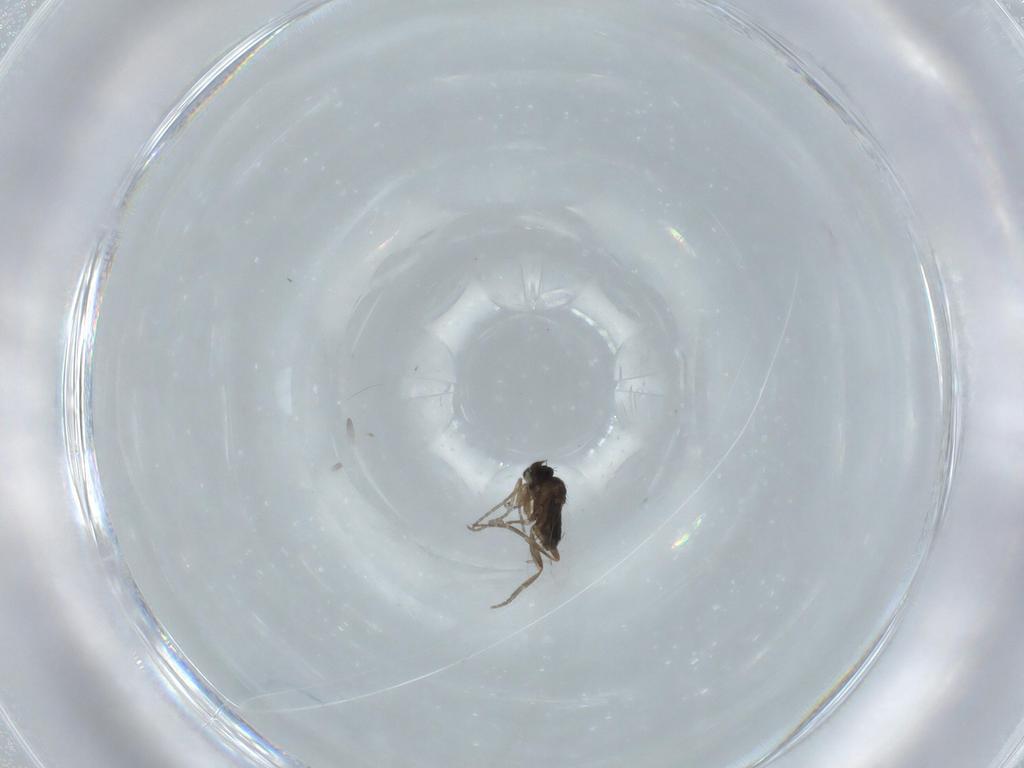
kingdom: Animalia
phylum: Arthropoda
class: Insecta
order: Diptera
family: Phoridae
